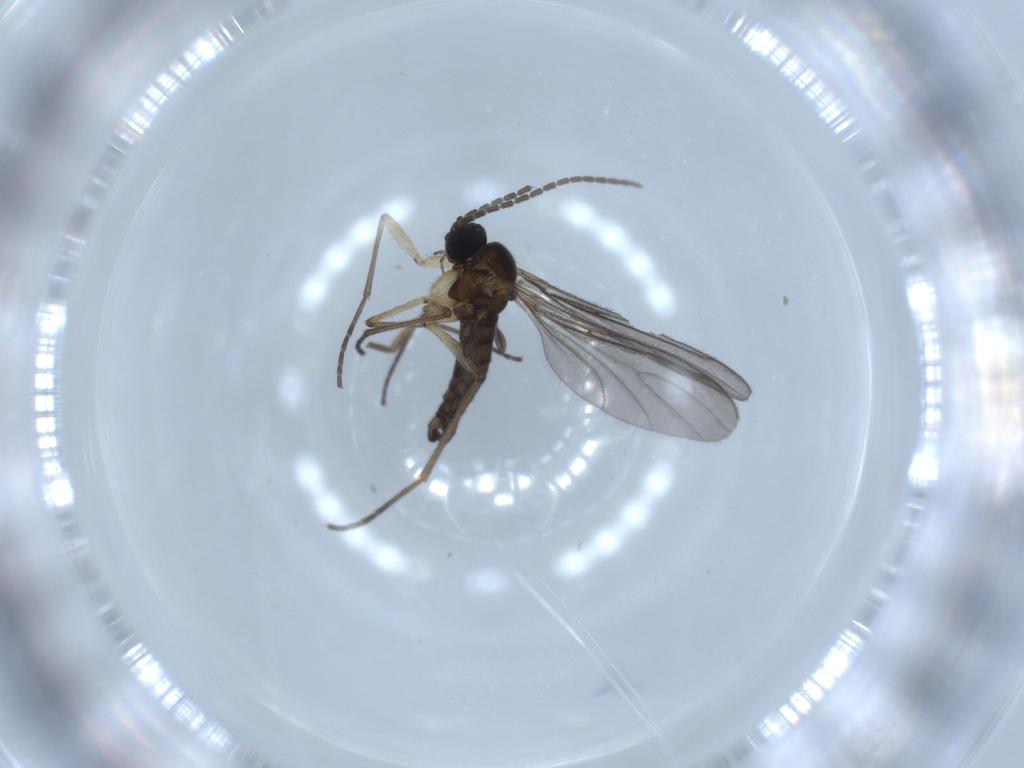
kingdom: Animalia
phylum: Arthropoda
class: Insecta
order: Diptera
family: Sciaridae
